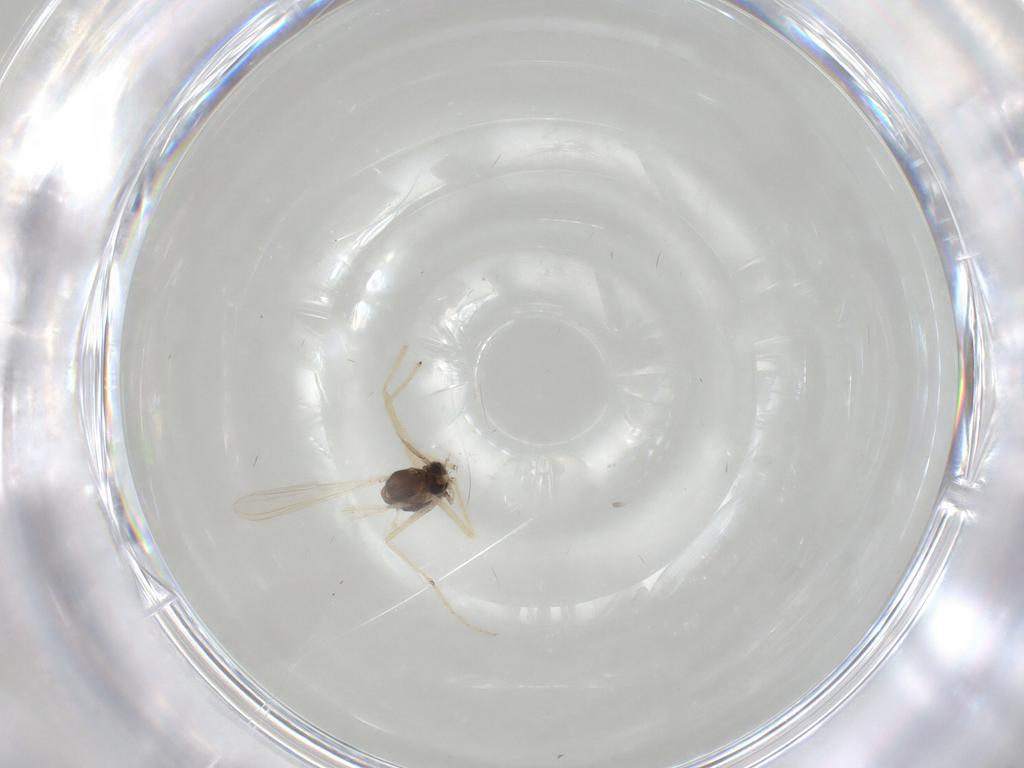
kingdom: Animalia
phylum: Arthropoda
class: Insecta
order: Diptera
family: Chironomidae
